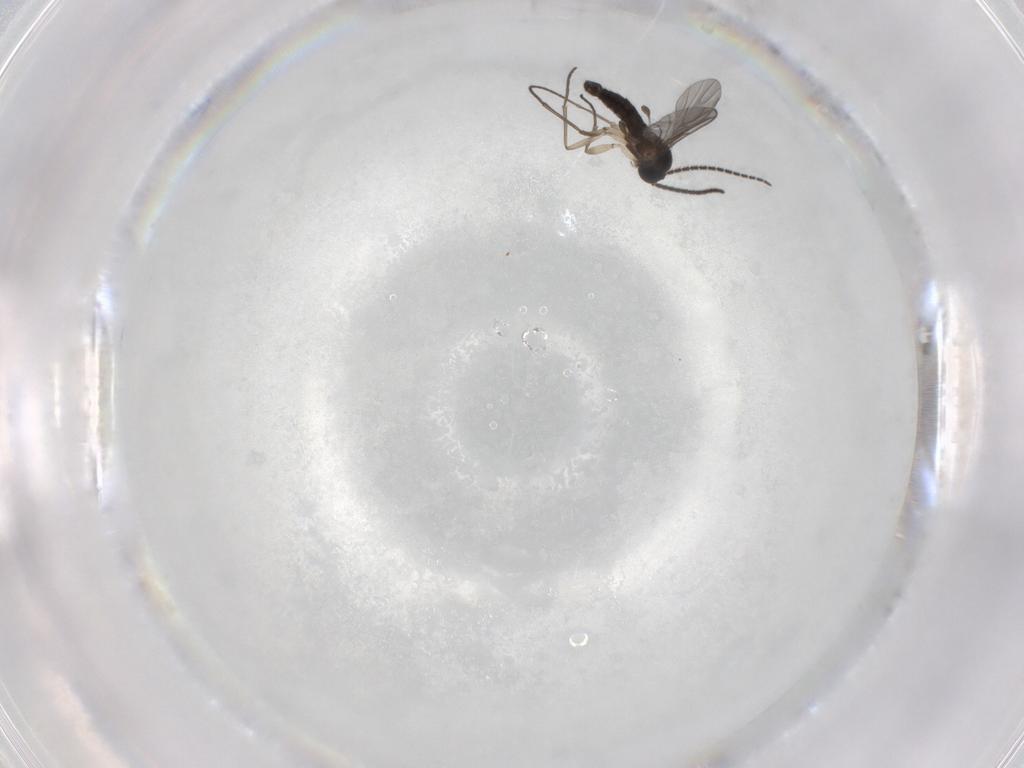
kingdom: Animalia
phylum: Arthropoda
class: Insecta
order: Diptera
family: Sciaridae
